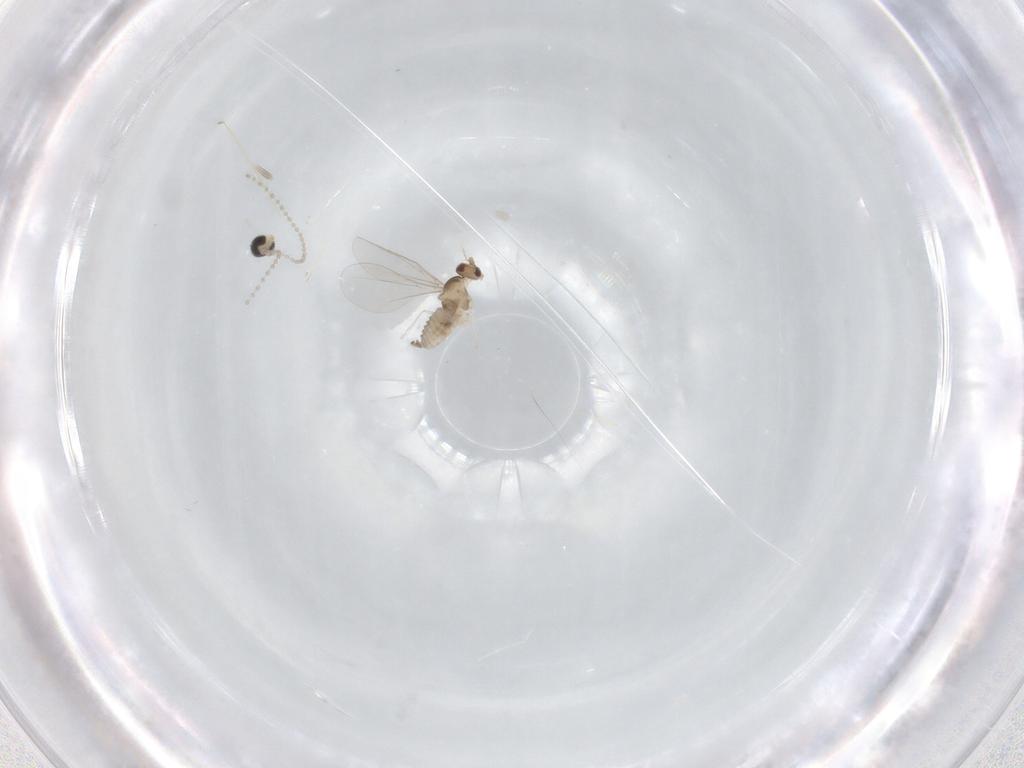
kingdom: Animalia
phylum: Arthropoda
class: Insecta
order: Diptera
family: Cecidomyiidae
